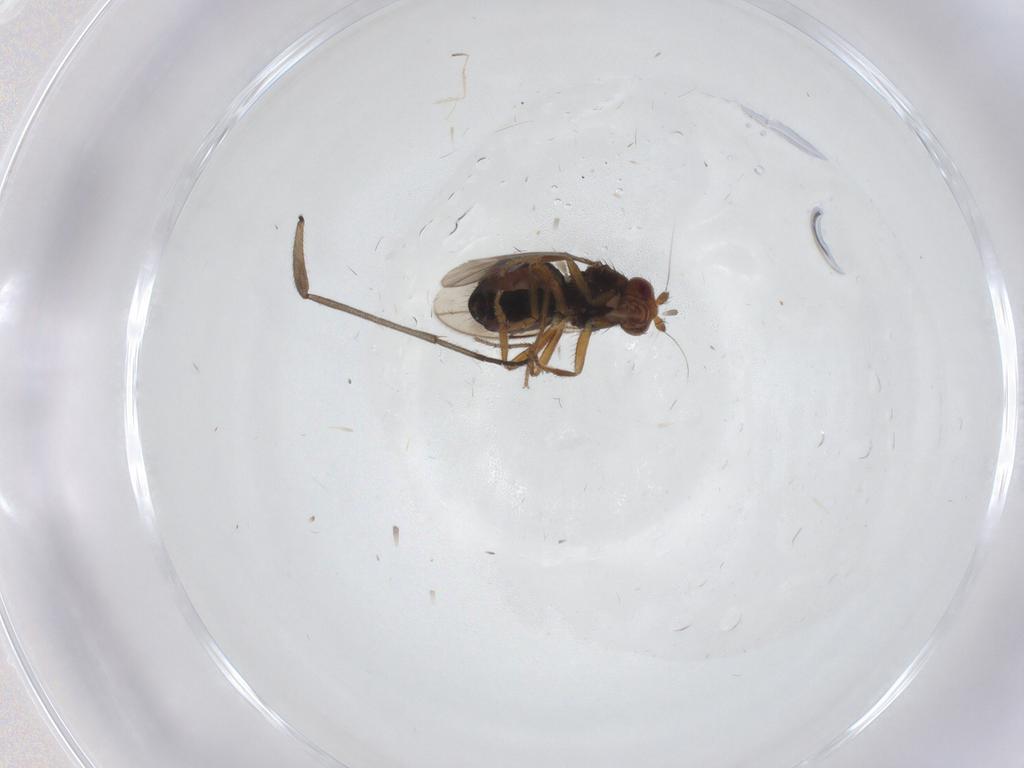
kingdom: Animalia
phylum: Arthropoda
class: Insecta
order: Diptera
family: Sphaeroceridae
